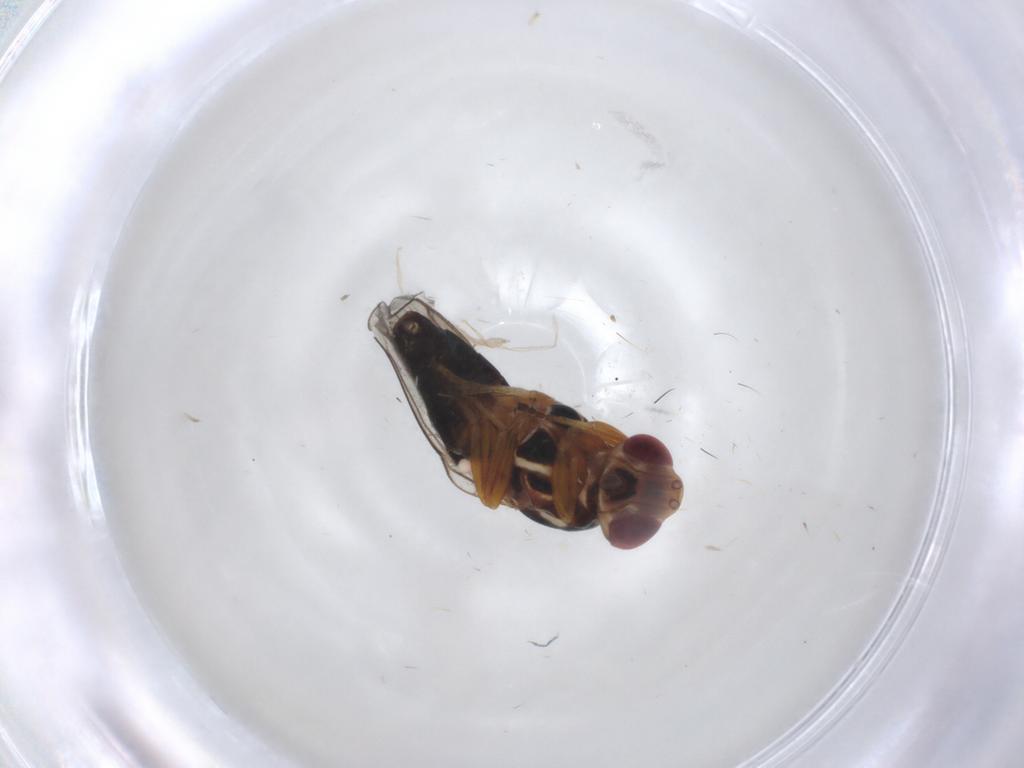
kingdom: Animalia
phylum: Arthropoda
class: Insecta
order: Diptera
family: Chloropidae
